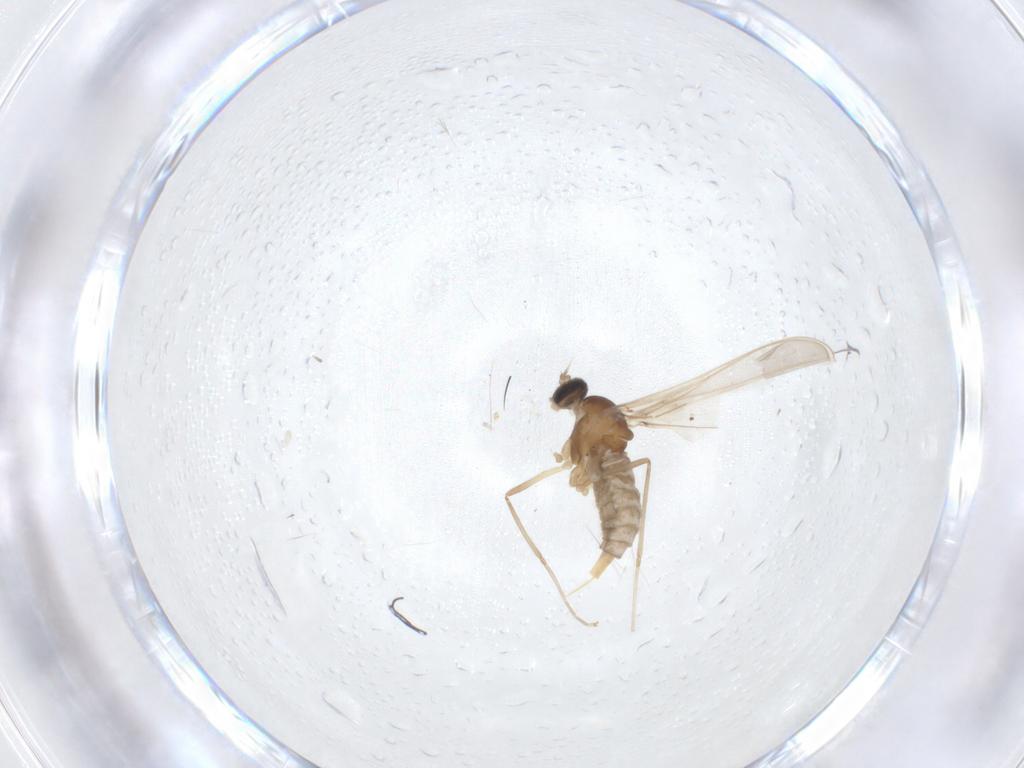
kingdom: Animalia
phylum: Arthropoda
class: Insecta
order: Diptera
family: Cecidomyiidae
